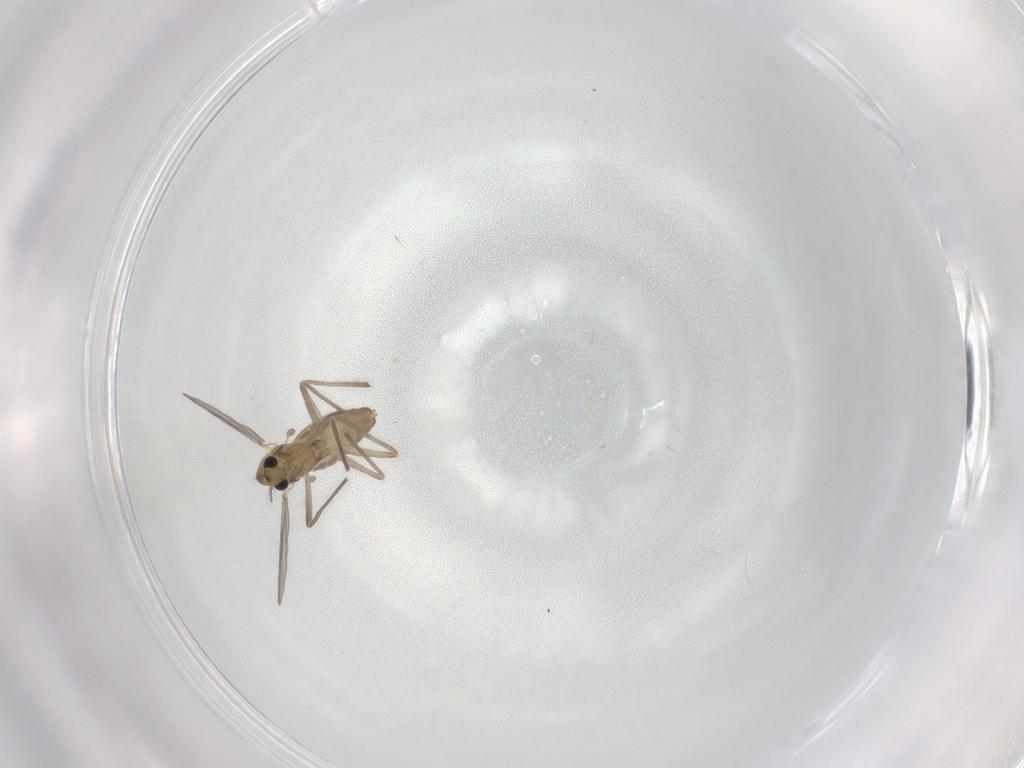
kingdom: Animalia
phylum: Arthropoda
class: Insecta
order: Diptera
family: Chironomidae
